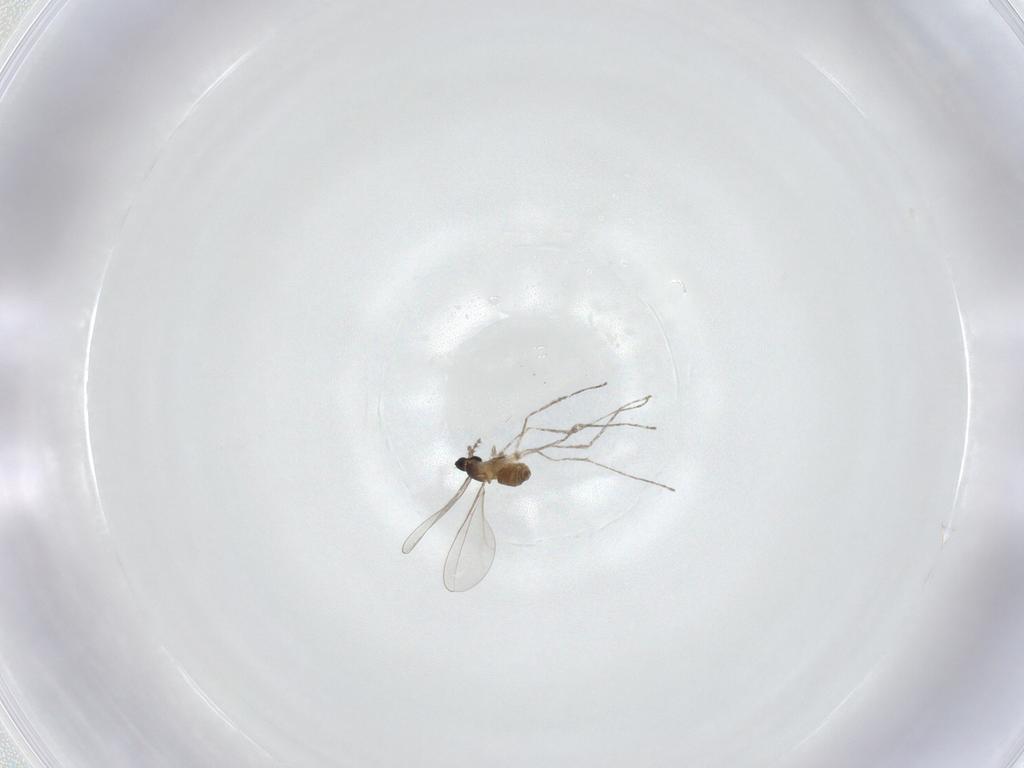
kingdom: Animalia
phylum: Arthropoda
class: Insecta
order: Diptera
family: Cecidomyiidae
